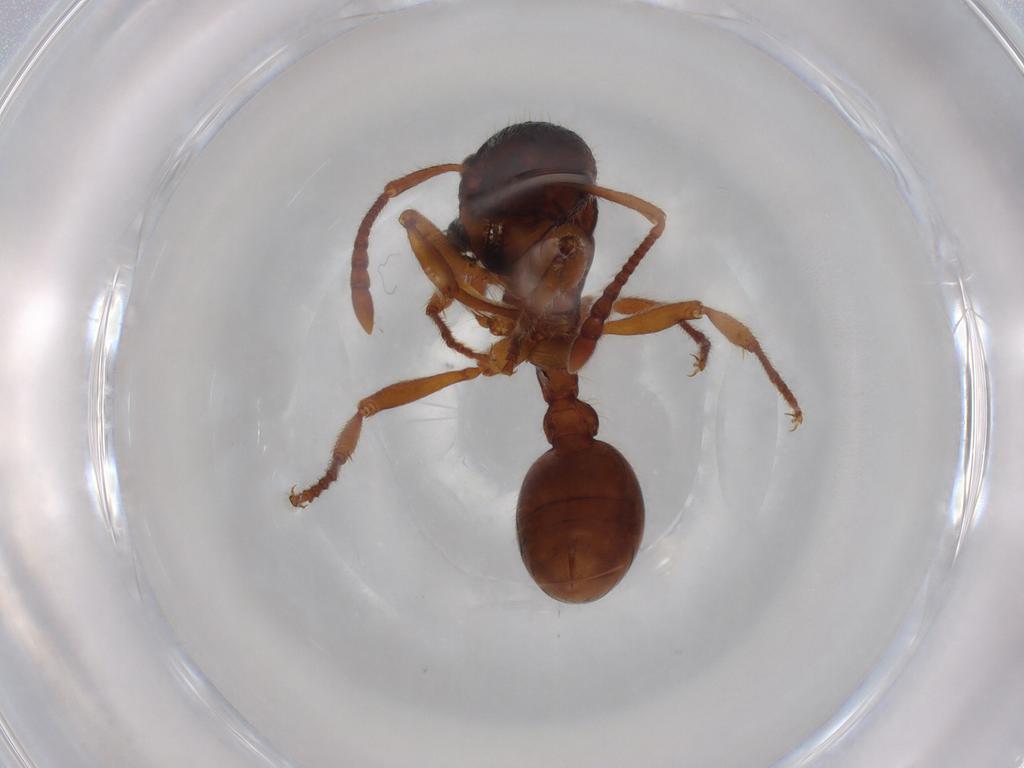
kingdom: Animalia
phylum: Arthropoda
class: Insecta
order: Hymenoptera
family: Formicidae
